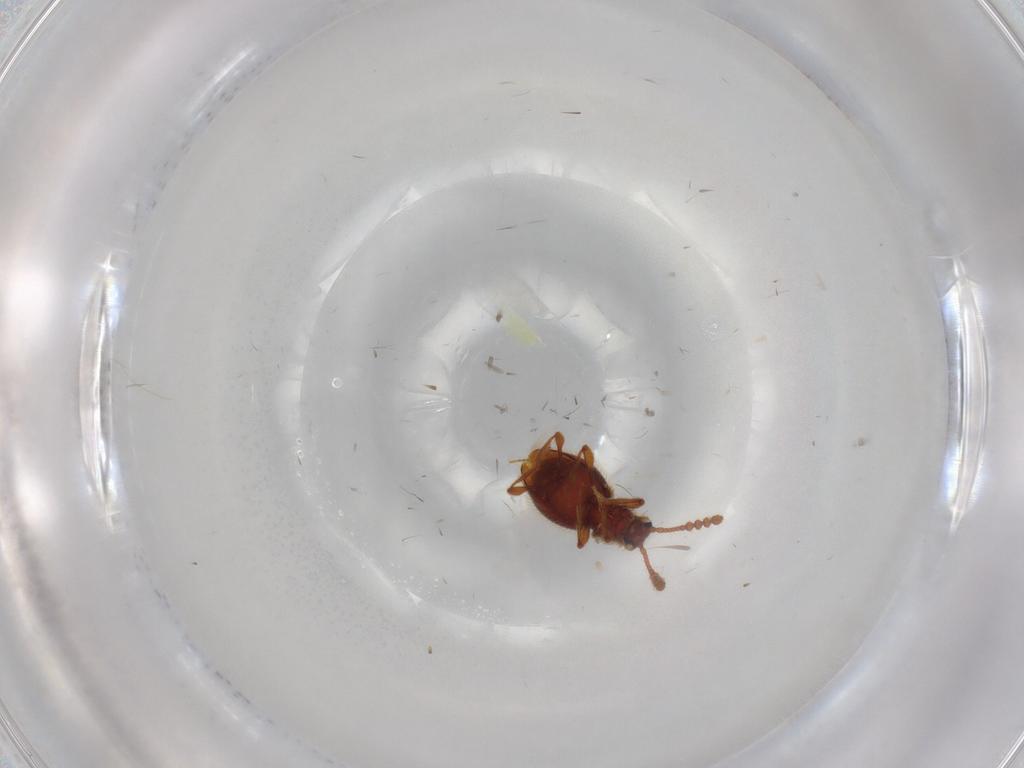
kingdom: Animalia
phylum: Arthropoda
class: Insecta
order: Coleoptera
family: Staphylinidae
